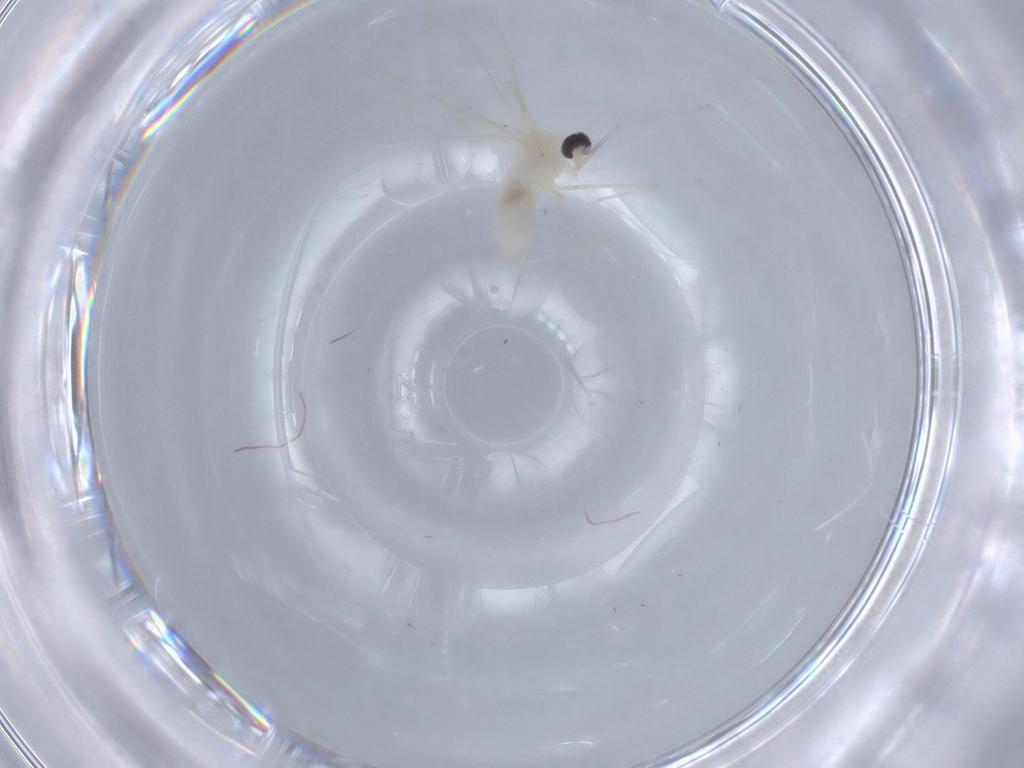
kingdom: Animalia
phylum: Arthropoda
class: Insecta
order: Diptera
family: Cecidomyiidae
